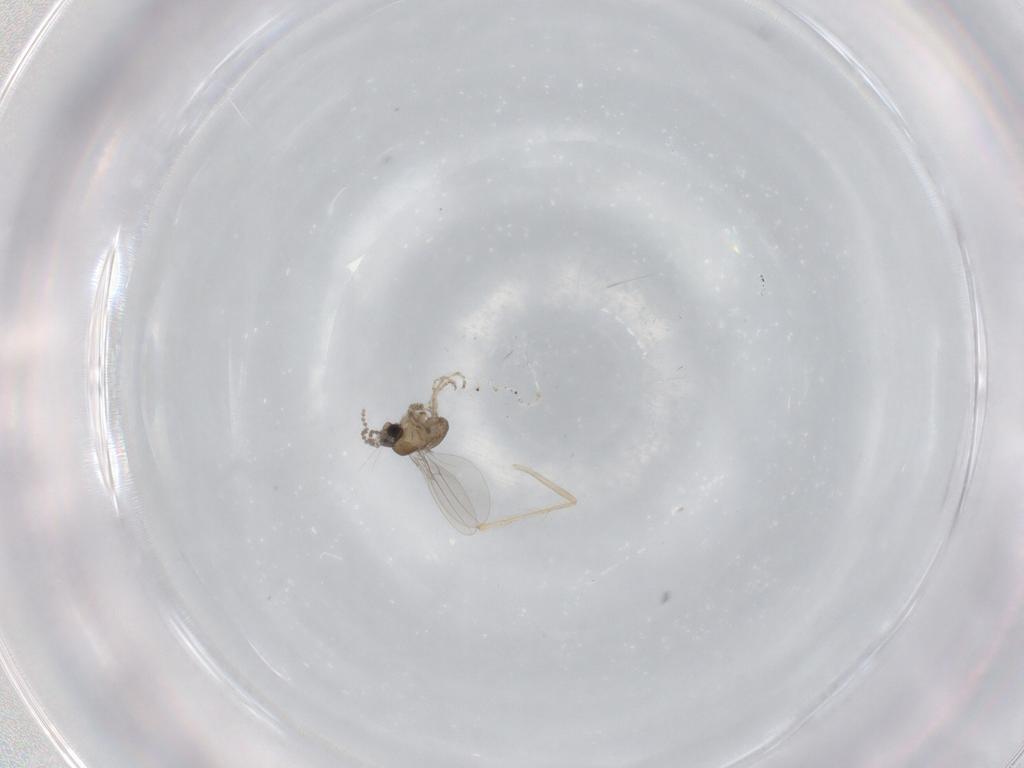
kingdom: Animalia
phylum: Arthropoda
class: Insecta
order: Diptera
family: Cecidomyiidae
